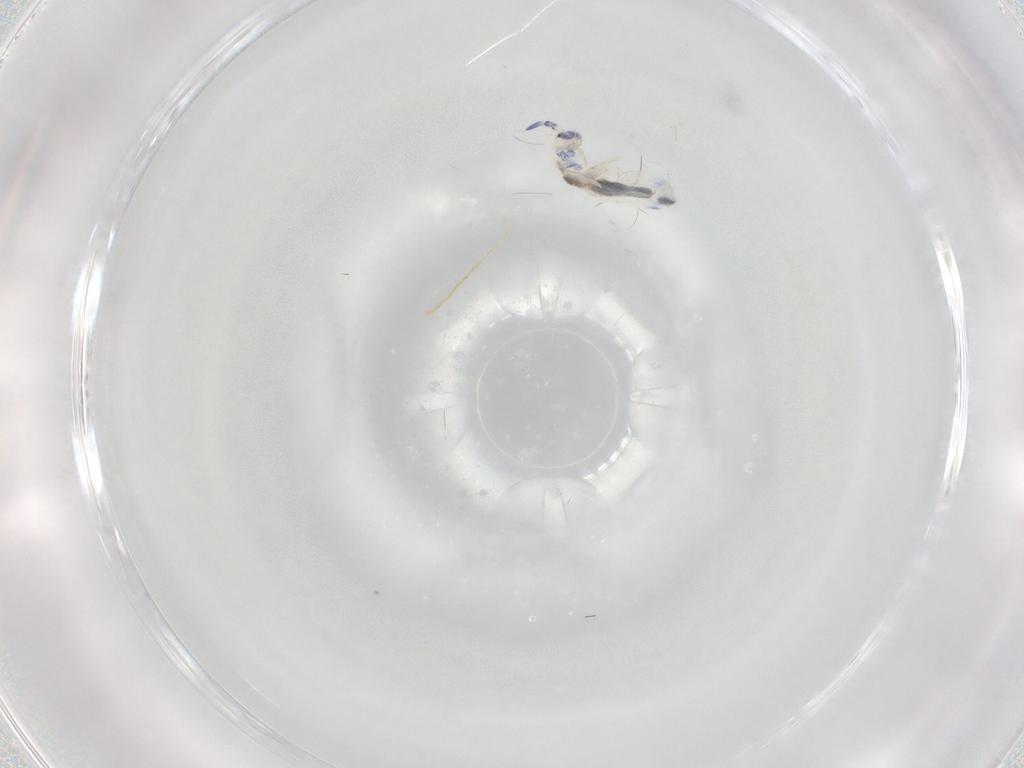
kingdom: Animalia
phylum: Arthropoda
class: Collembola
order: Entomobryomorpha
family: Entomobryidae
